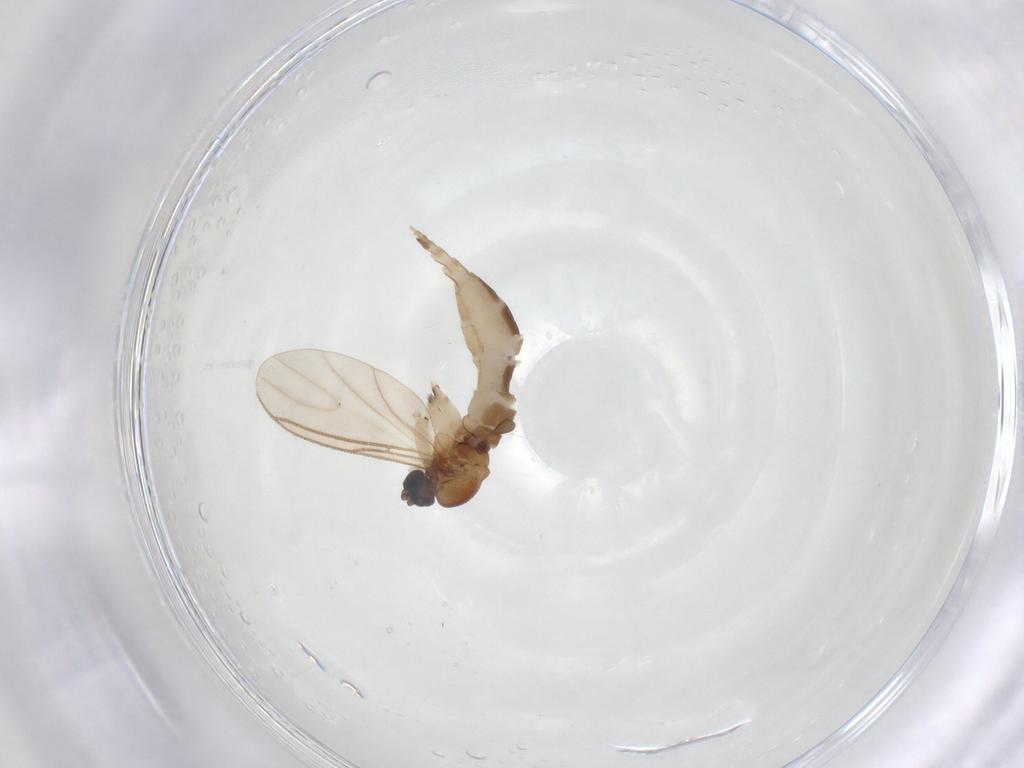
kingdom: Animalia
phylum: Arthropoda
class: Insecta
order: Diptera
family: Sciaridae
